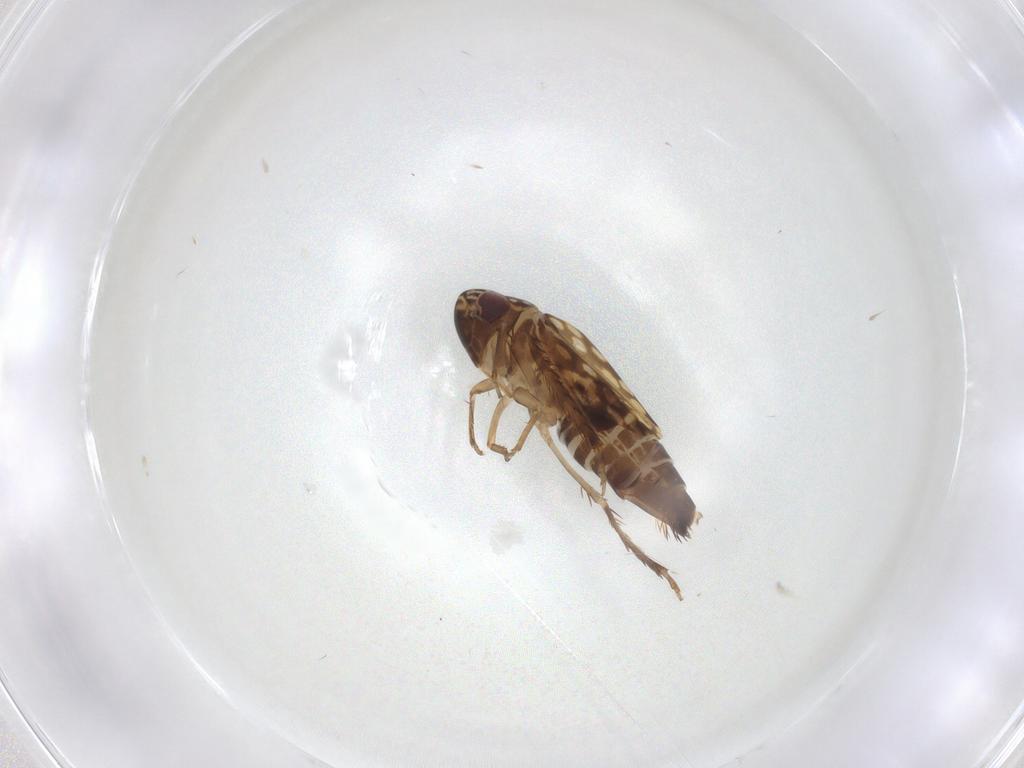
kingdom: Animalia
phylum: Arthropoda
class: Insecta
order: Hemiptera
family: Cicadellidae
